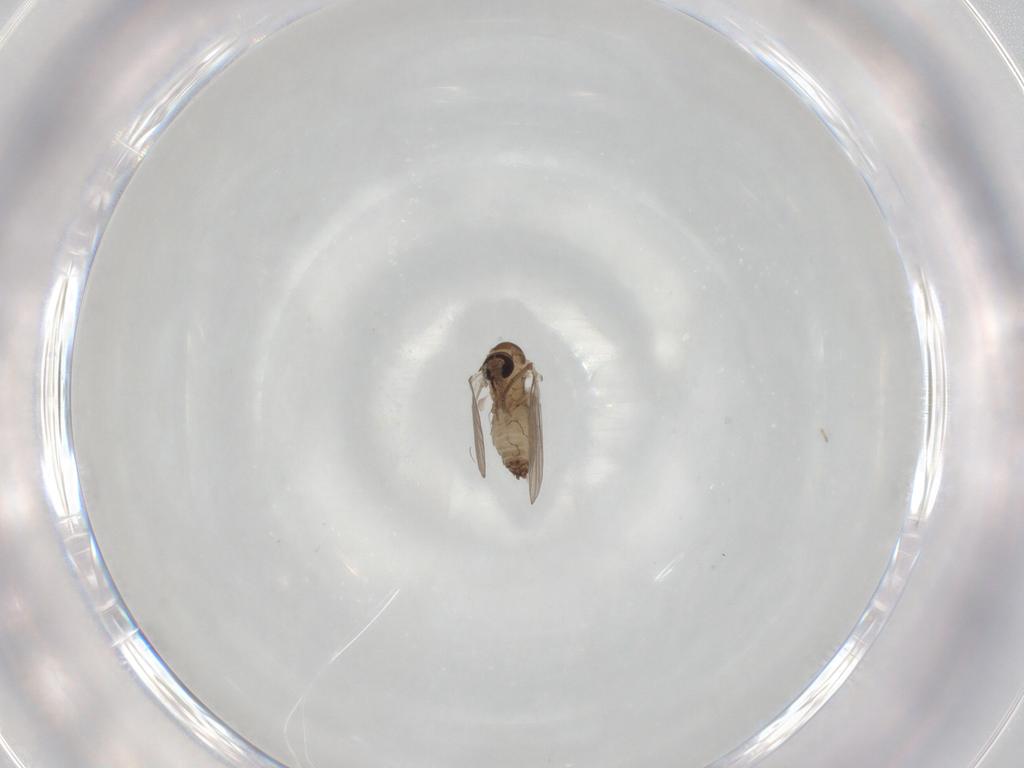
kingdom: Animalia
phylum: Arthropoda
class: Insecta
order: Diptera
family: Psychodidae
